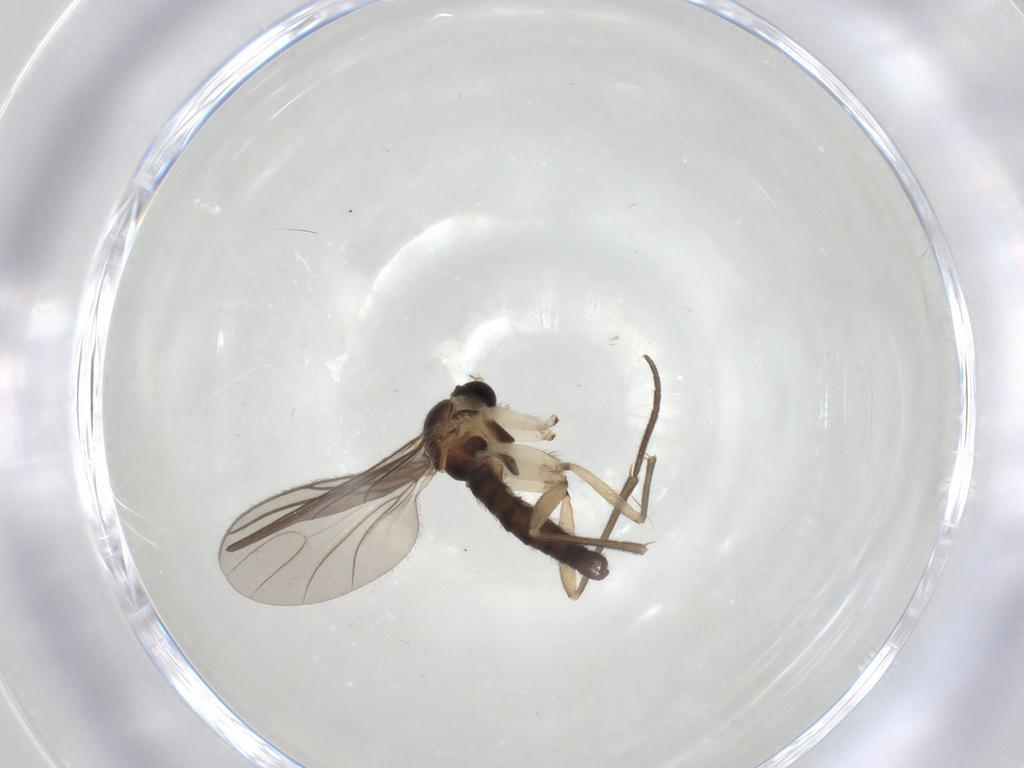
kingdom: Animalia
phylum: Arthropoda
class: Insecta
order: Diptera
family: Sciaridae
